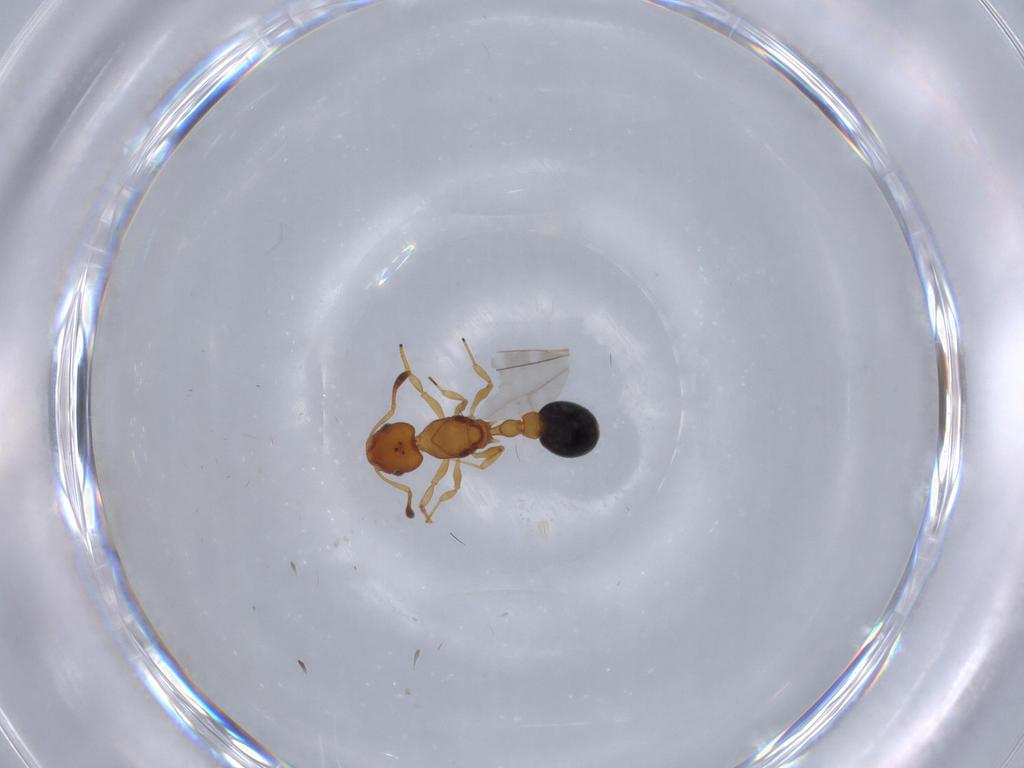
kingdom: Animalia
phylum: Arthropoda
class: Insecta
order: Hymenoptera
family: Formicidae
